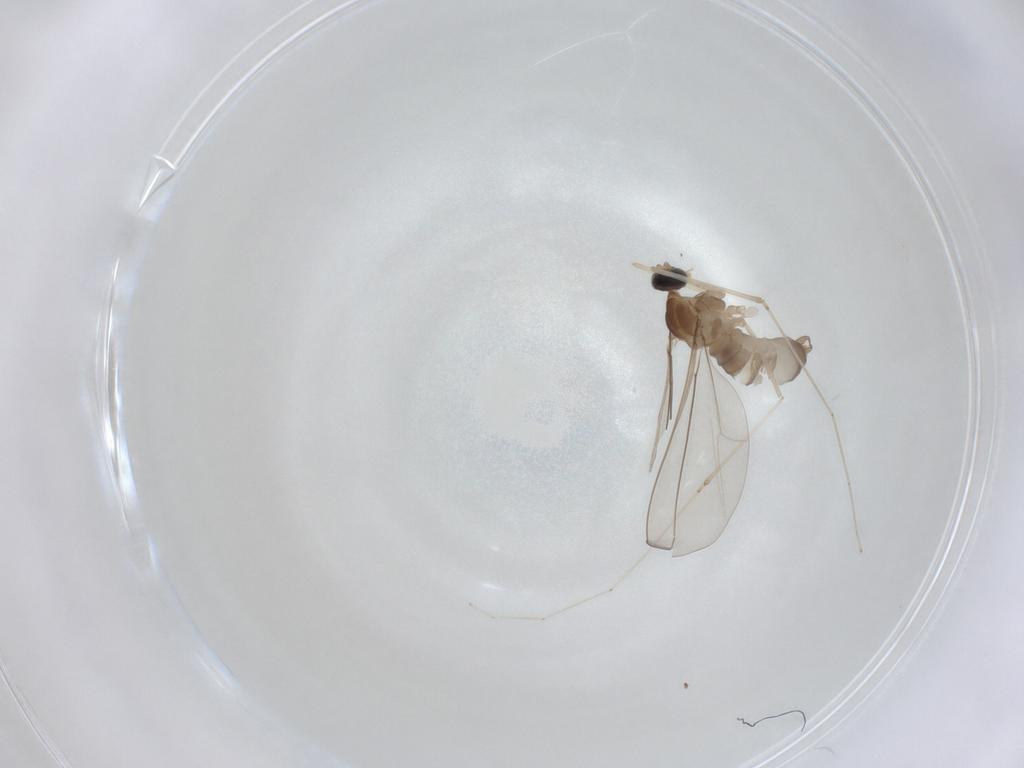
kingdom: Animalia
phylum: Arthropoda
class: Insecta
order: Diptera
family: Cecidomyiidae
